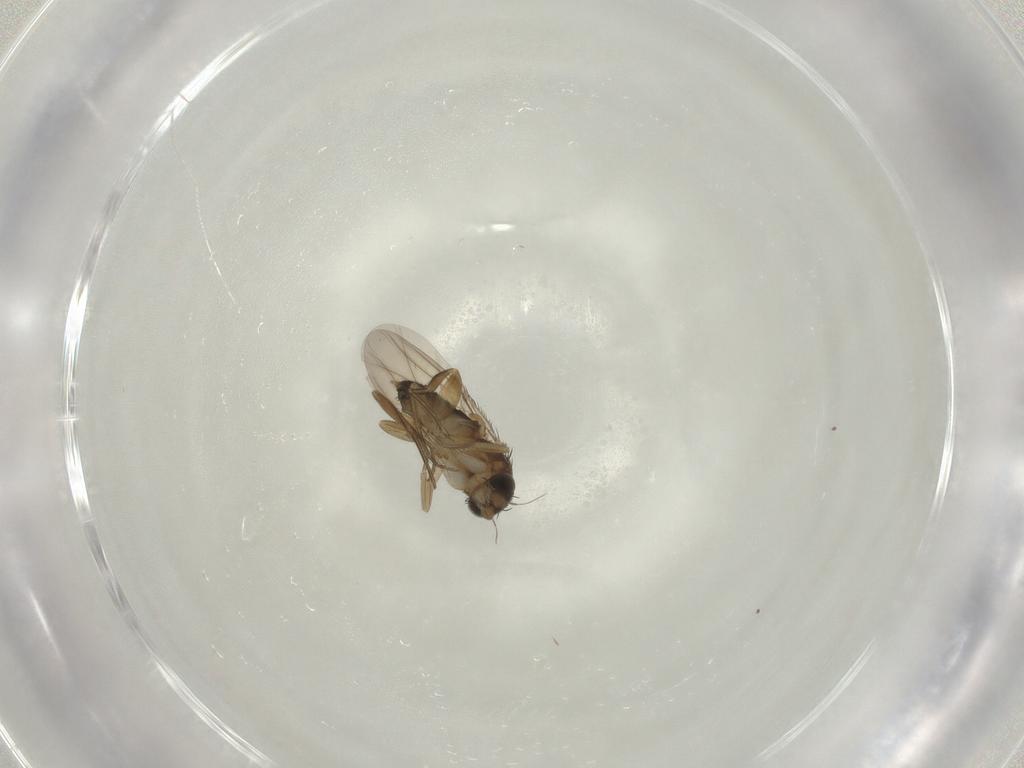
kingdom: Animalia
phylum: Arthropoda
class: Insecta
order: Diptera
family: Phoridae
